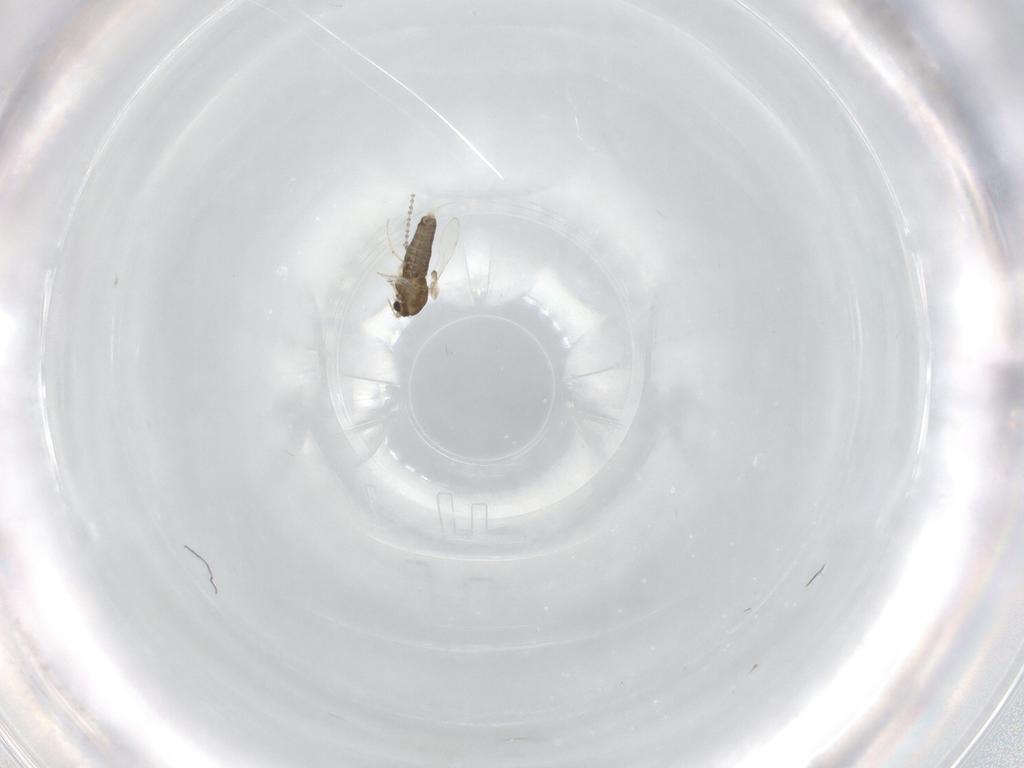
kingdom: Animalia
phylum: Arthropoda
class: Insecta
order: Diptera
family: Chironomidae
